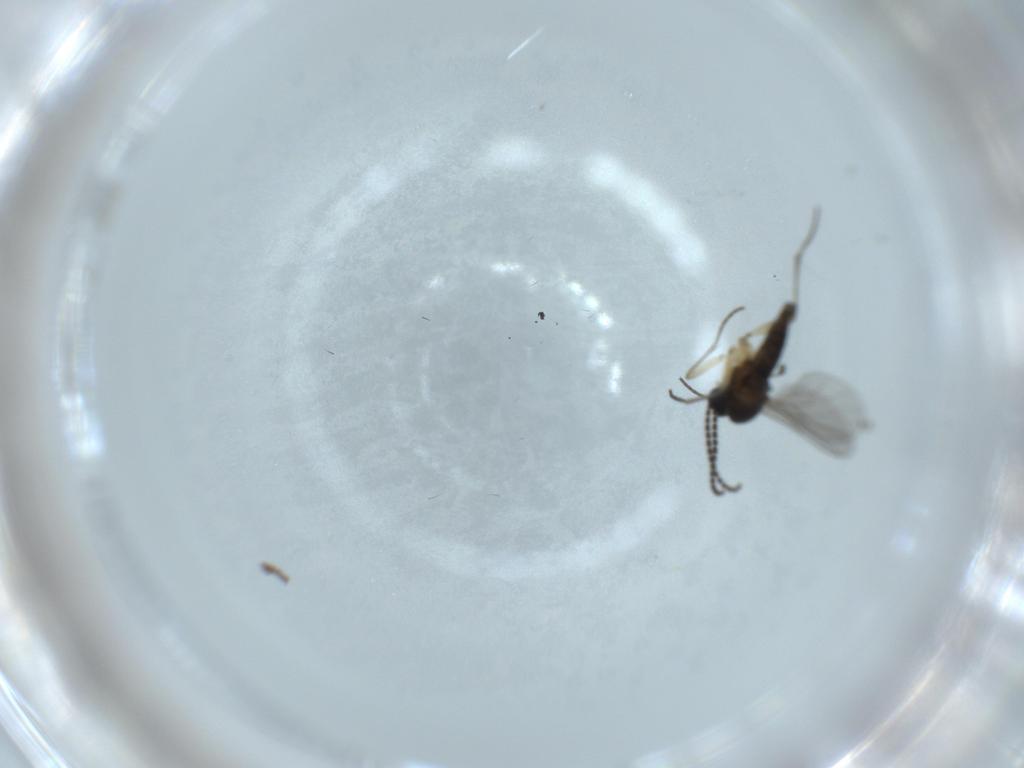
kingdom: Animalia
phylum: Arthropoda
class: Insecta
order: Diptera
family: Sciaridae
